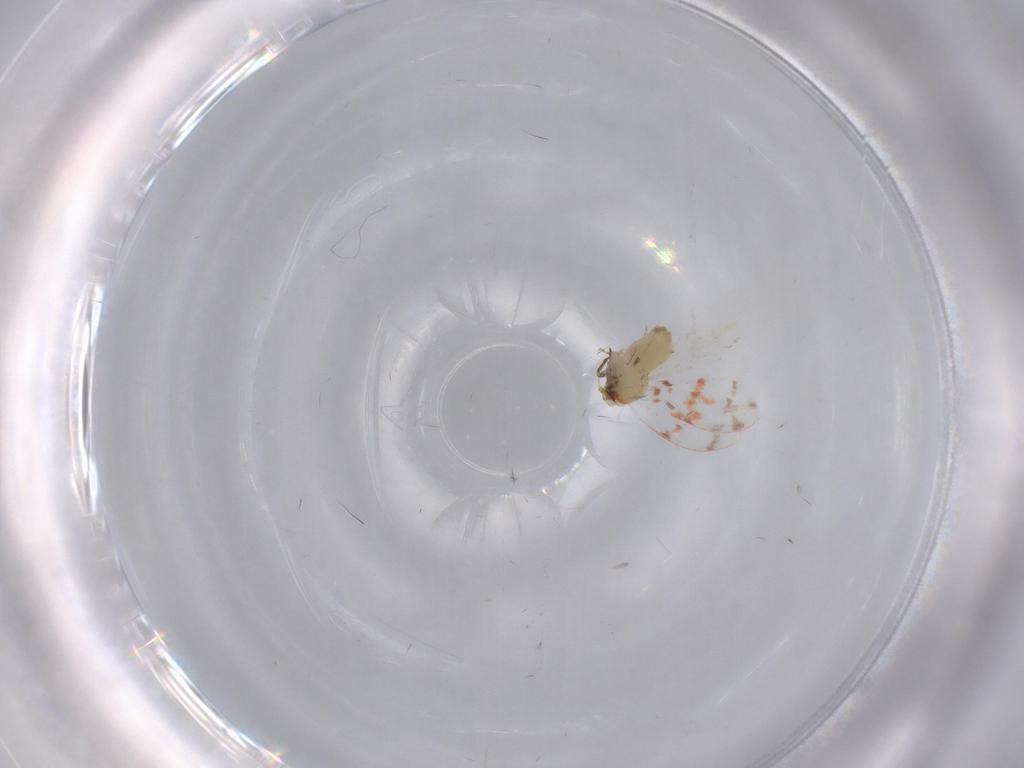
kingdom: Animalia
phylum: Arthropoda
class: Insecta
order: Hemiptera
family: Aleyrodidae
